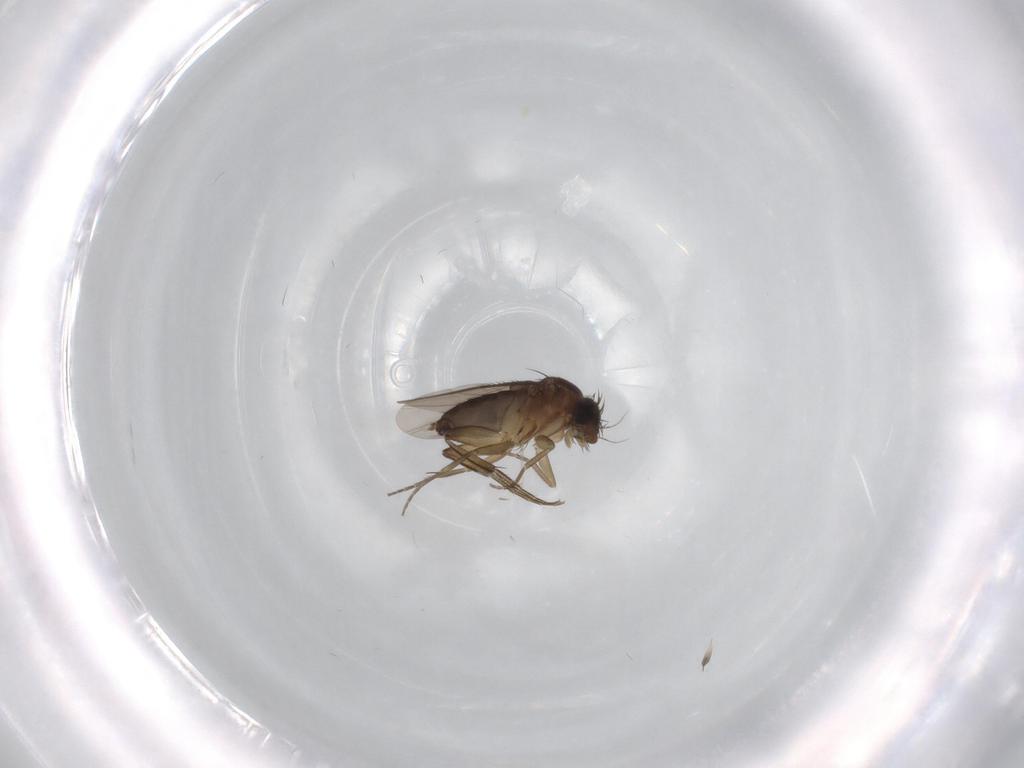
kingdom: Animalia
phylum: Arthropoda
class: Insecta
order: Diptera
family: Phoridae
